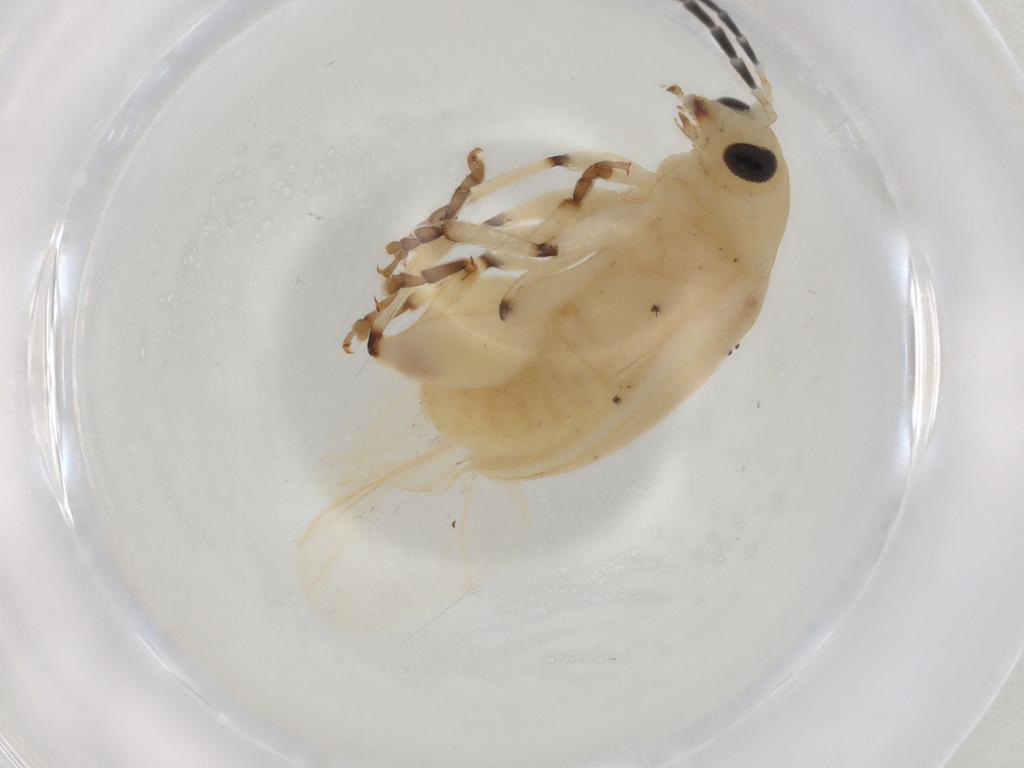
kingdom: Animalia
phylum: Arthropoda
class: Insecta
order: Coleoptera
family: Chrysomelidae
